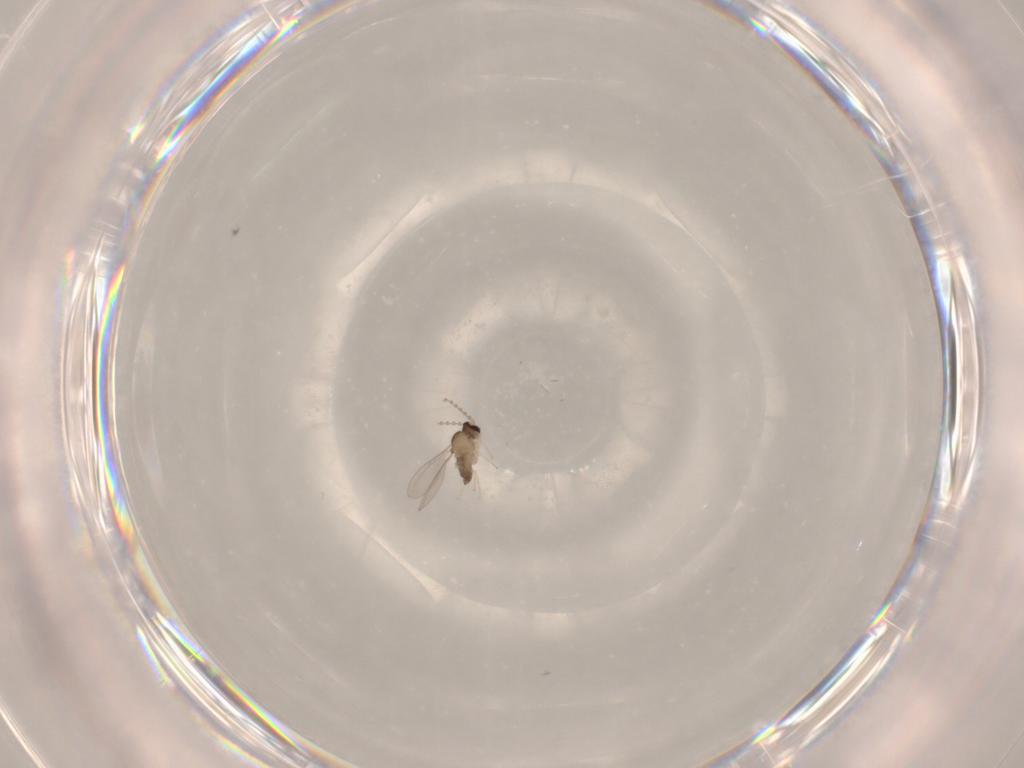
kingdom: Animalia
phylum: Arthropoda
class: Insecta
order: Diptera
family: Cecidomyiidae
